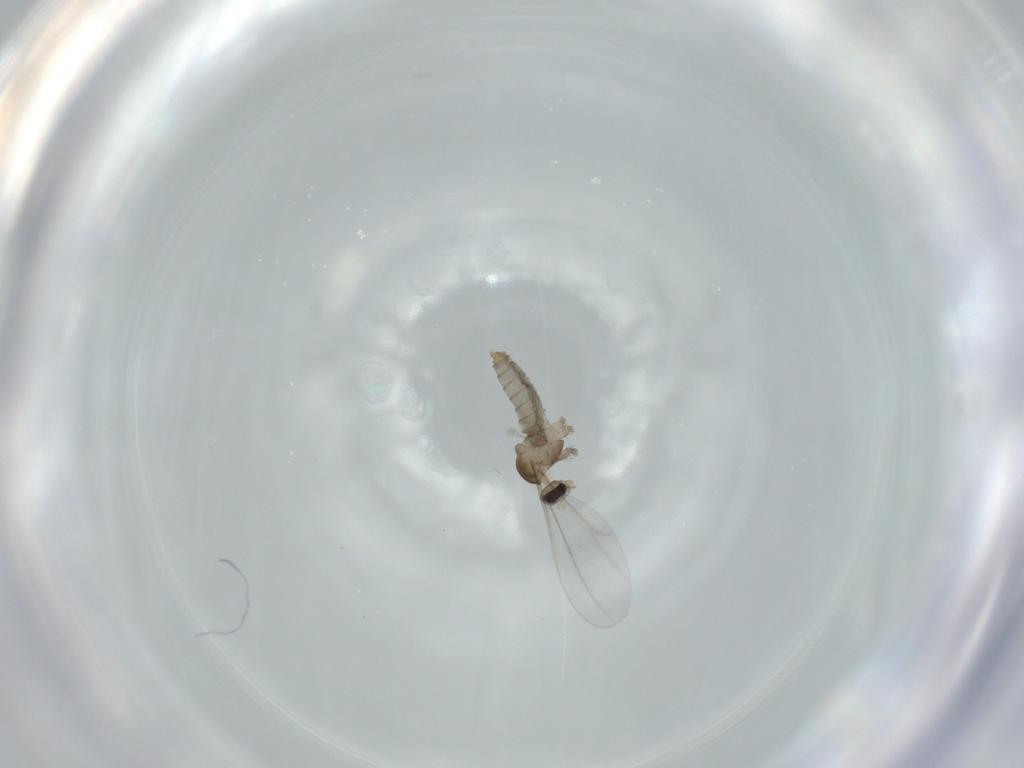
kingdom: Animalia
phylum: Arthropoda
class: Insecta
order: Diptera
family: Cecidomyiidae
